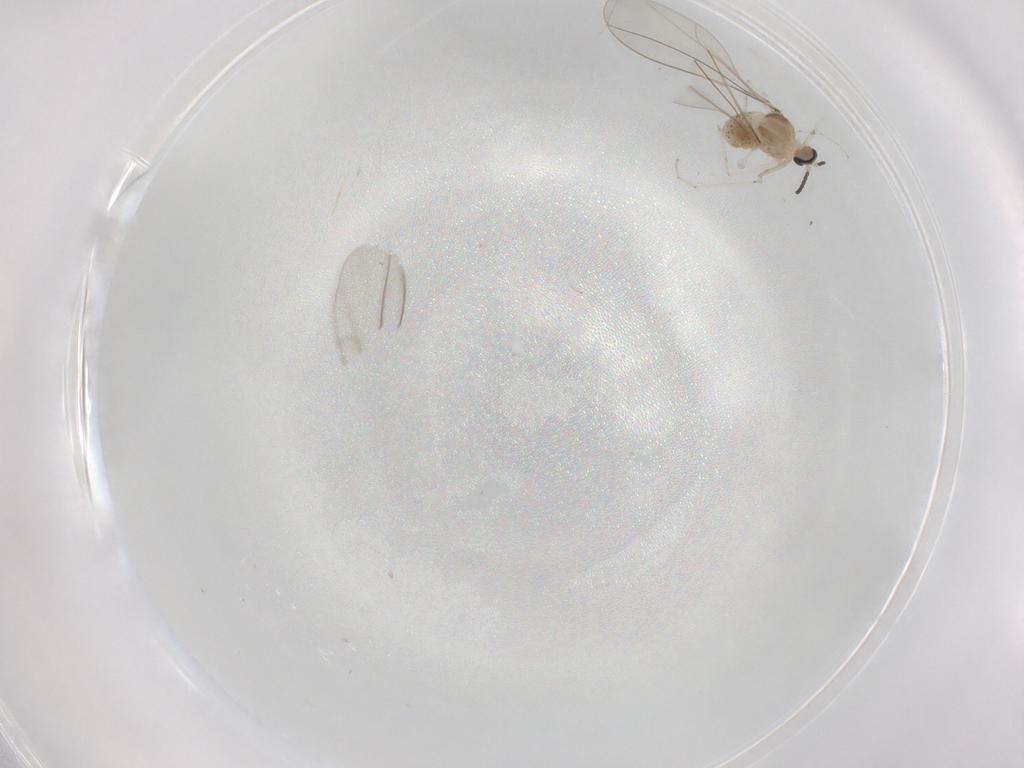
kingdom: Animalia
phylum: Arthropoda
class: Insecta
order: Diptera
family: Cecidomyiidae
